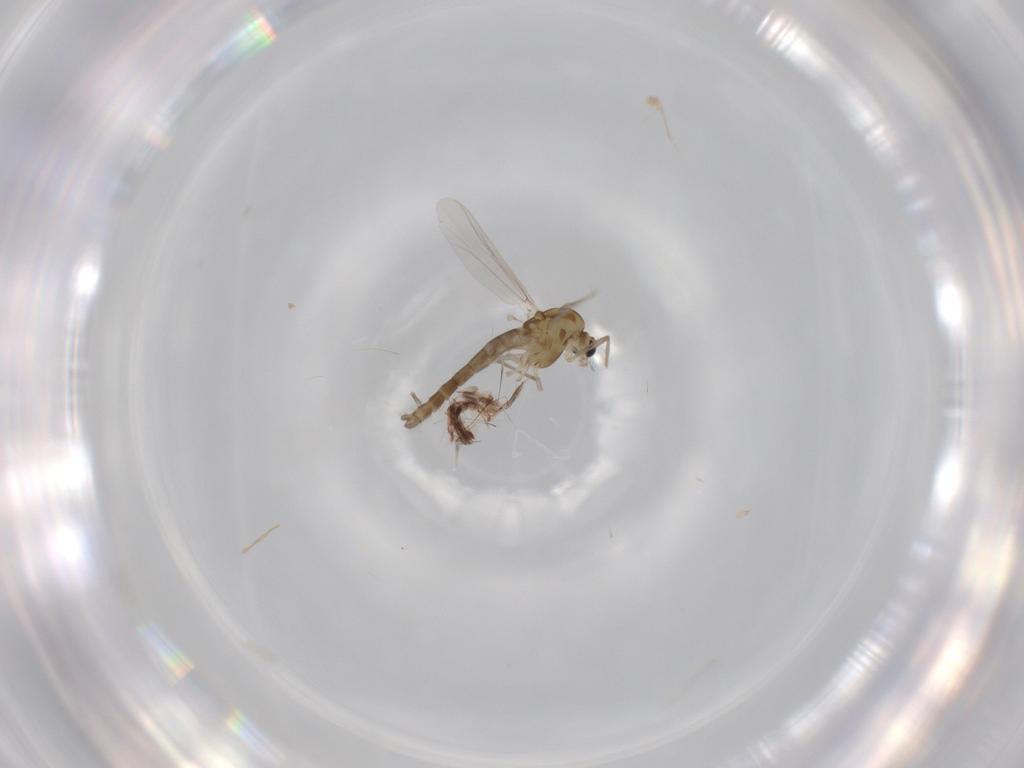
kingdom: Animalia
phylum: Arthropoda
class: Insecta
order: Diptera
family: Chironomidae
